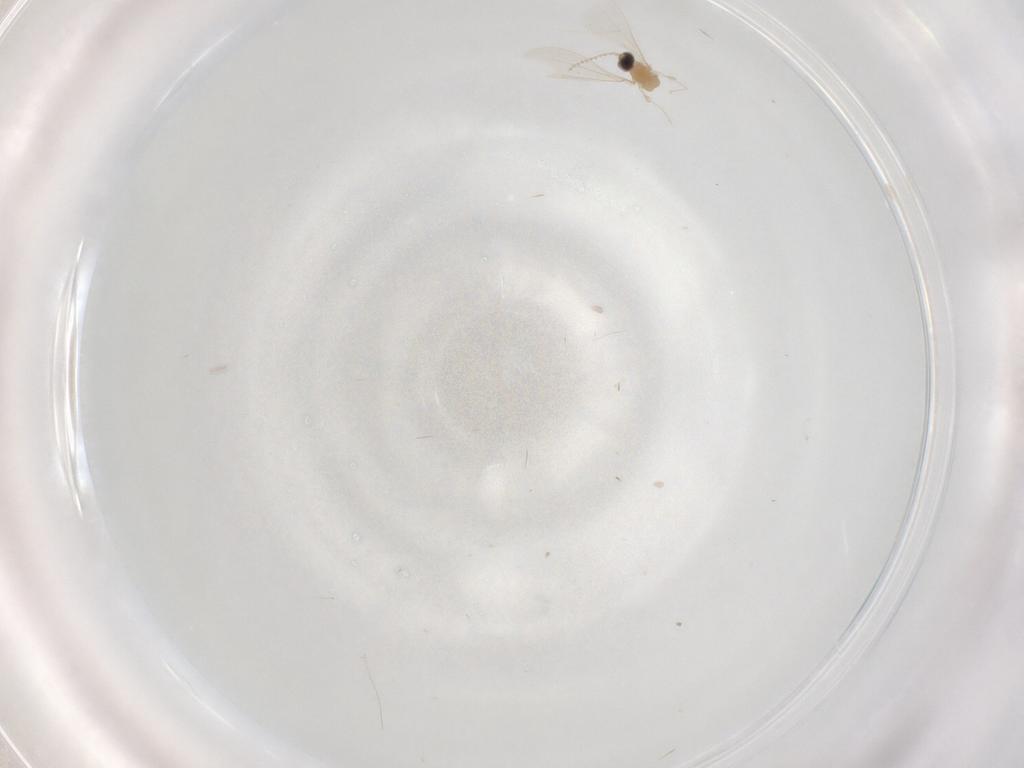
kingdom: Animalia
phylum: Arthropoda
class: Insecta
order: Diptera
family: Cecidomyiidae
